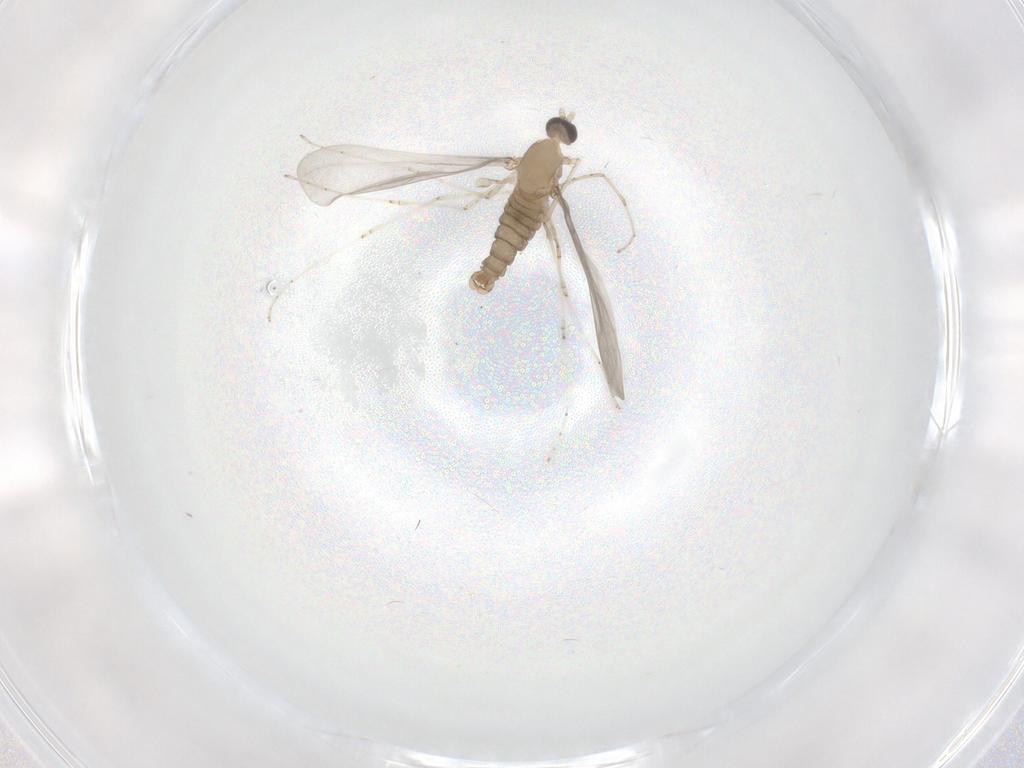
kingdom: Animalia
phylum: Arthropoda
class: Insecta
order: Diptera
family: Cecidomyiidae
